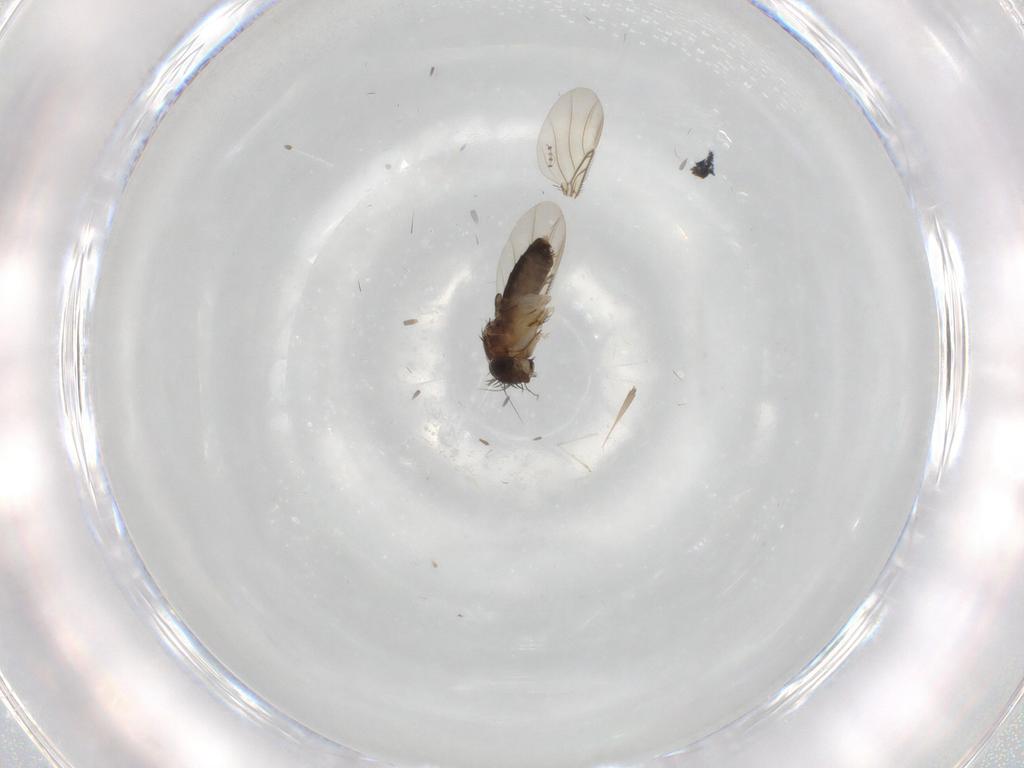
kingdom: Animalia
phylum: Arthropoda
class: Insecta
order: Diptera
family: Phoridae
